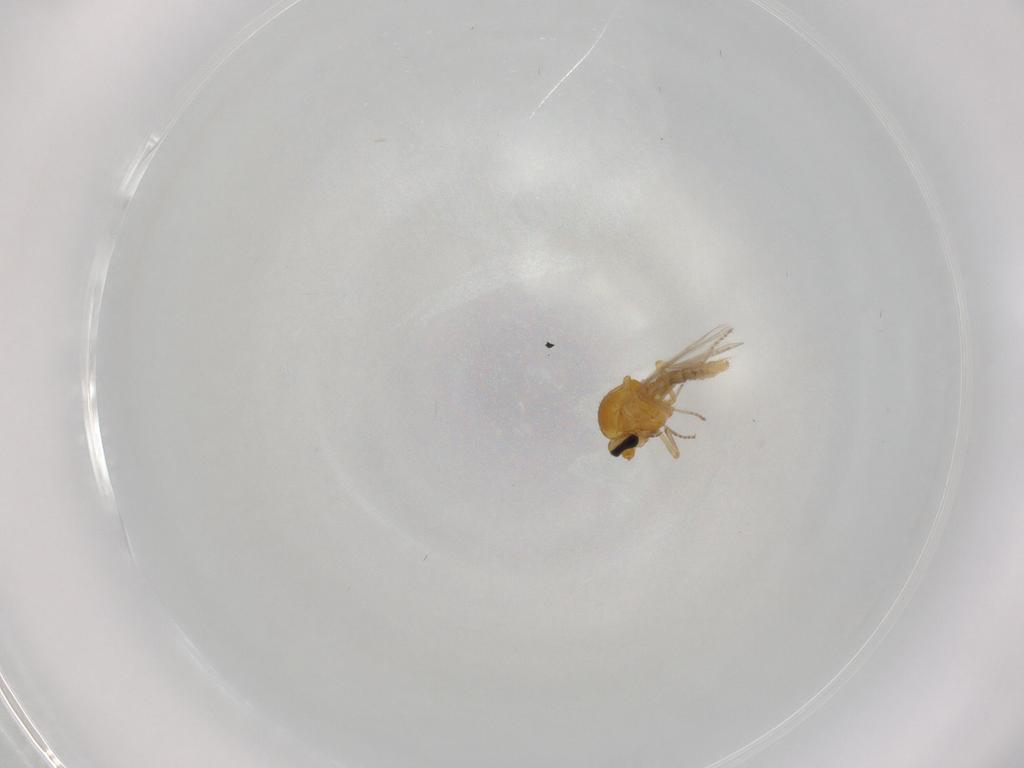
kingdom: Animalia
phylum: Arthropoda
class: Insecta
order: Diptera
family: Ceratopogonidae
